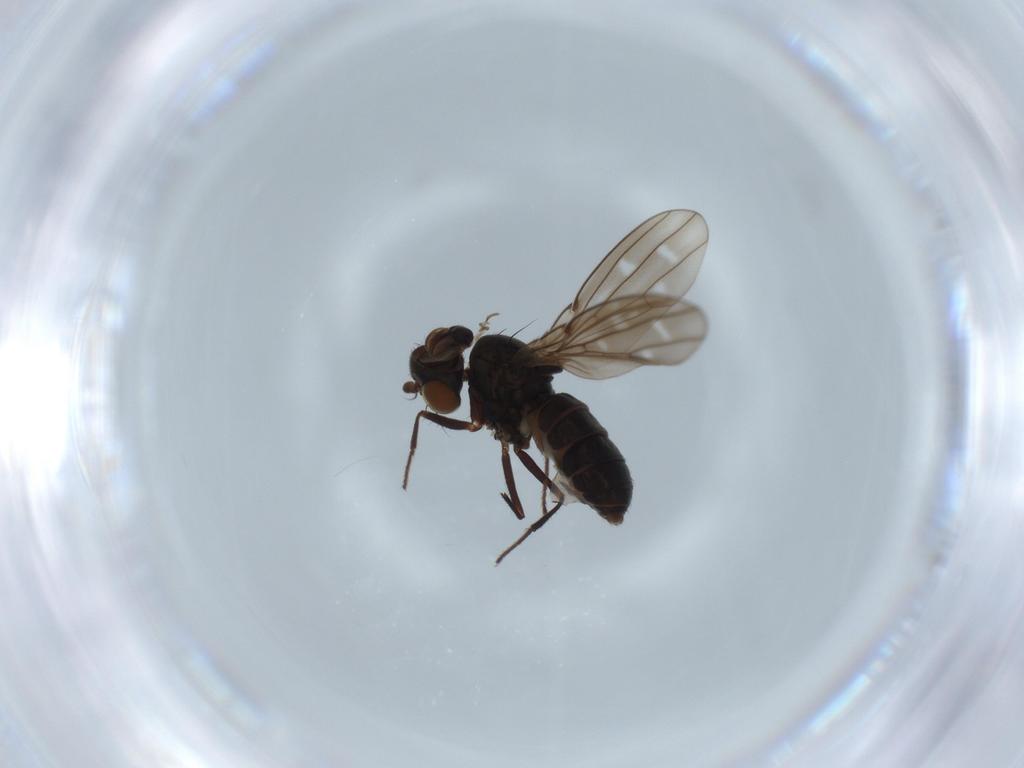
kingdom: Animalia
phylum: Arthropoda
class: Insecta
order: Diptera
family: Ephydridae
